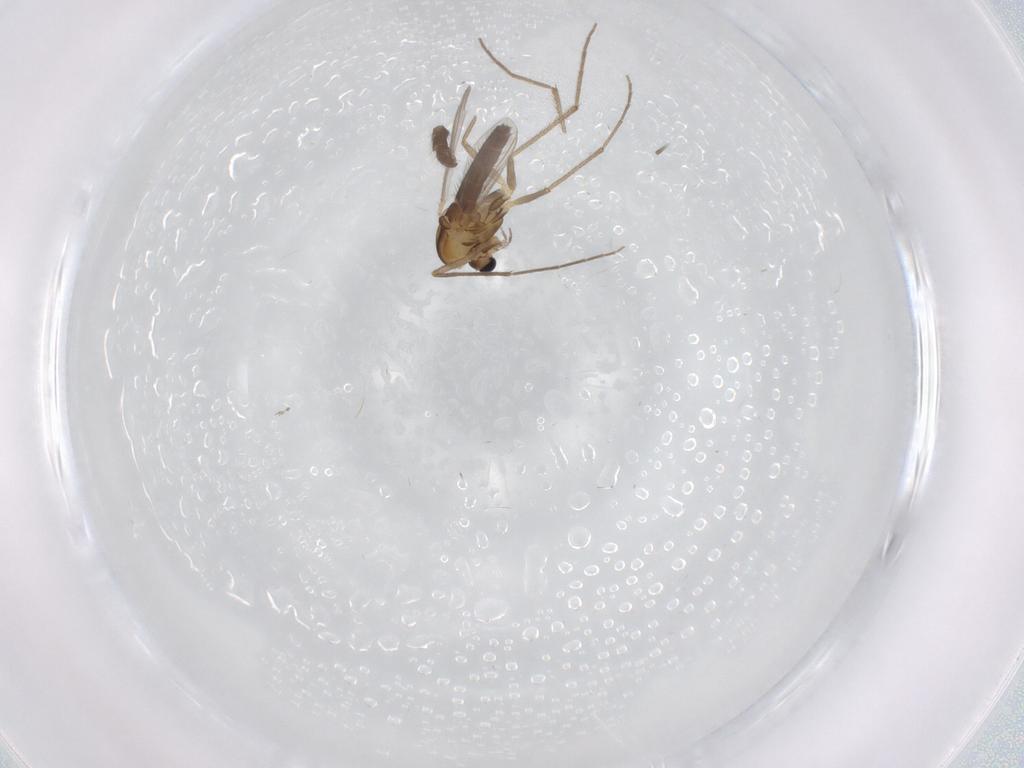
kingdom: Animalia
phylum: Arthropoda
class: Insecta
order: Diptera
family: Chironomidae
